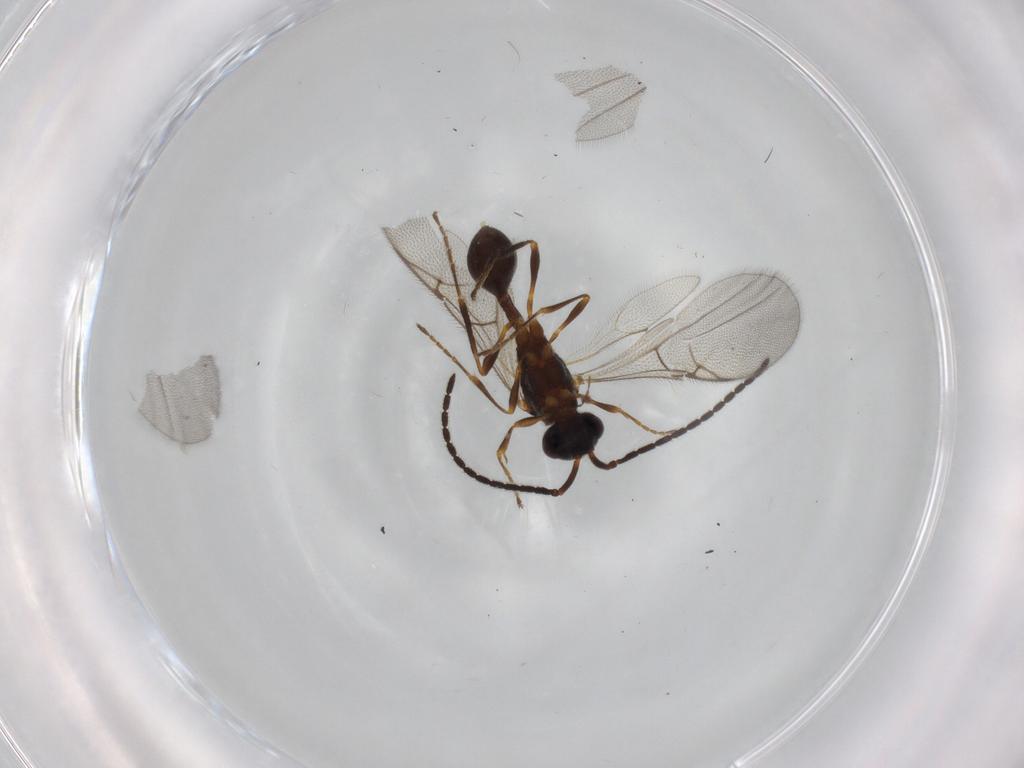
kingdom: Animalia
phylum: Arthropoda
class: Insecta
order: Hymenoptera
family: Diapriidae
